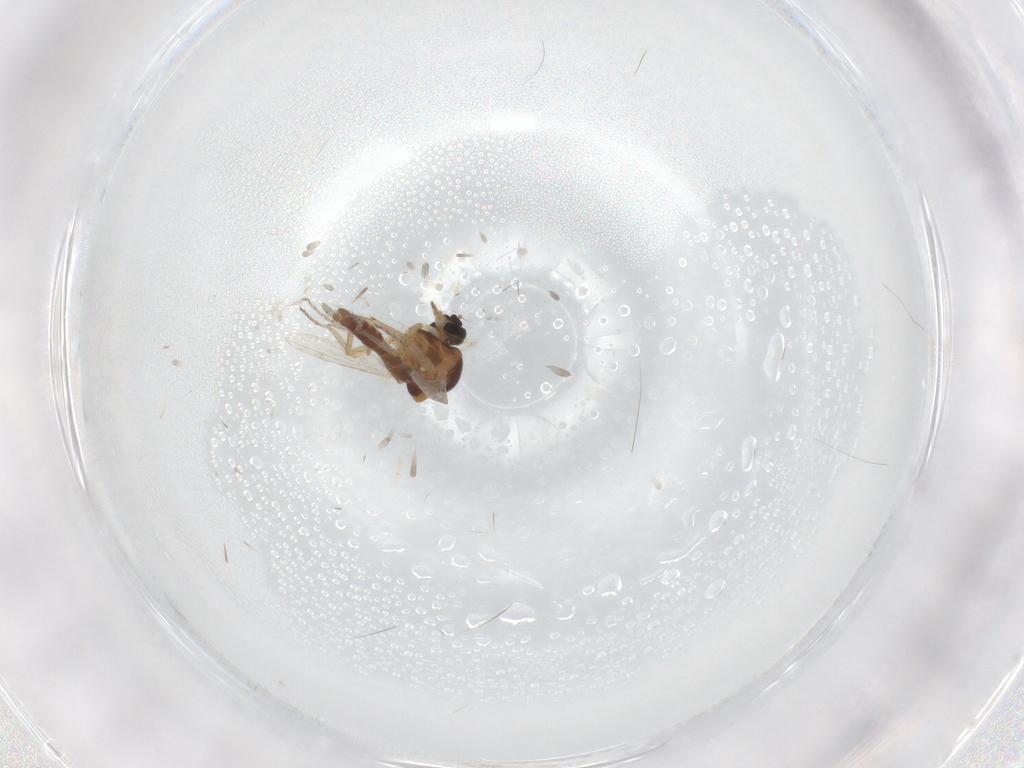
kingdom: Animalia
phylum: Arthropoda
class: Insecta
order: Diptera
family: Ceratopogonidae
